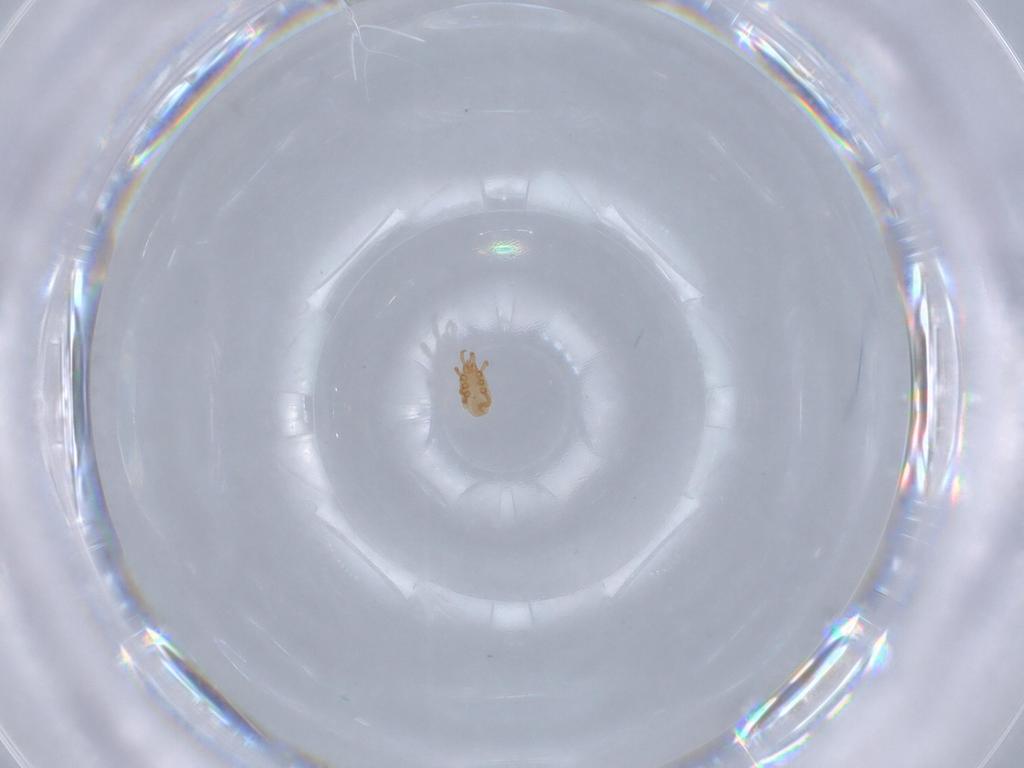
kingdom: Animalia
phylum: Arthropoda
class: Arachnida
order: Mesostigmata
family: Dinychidae
